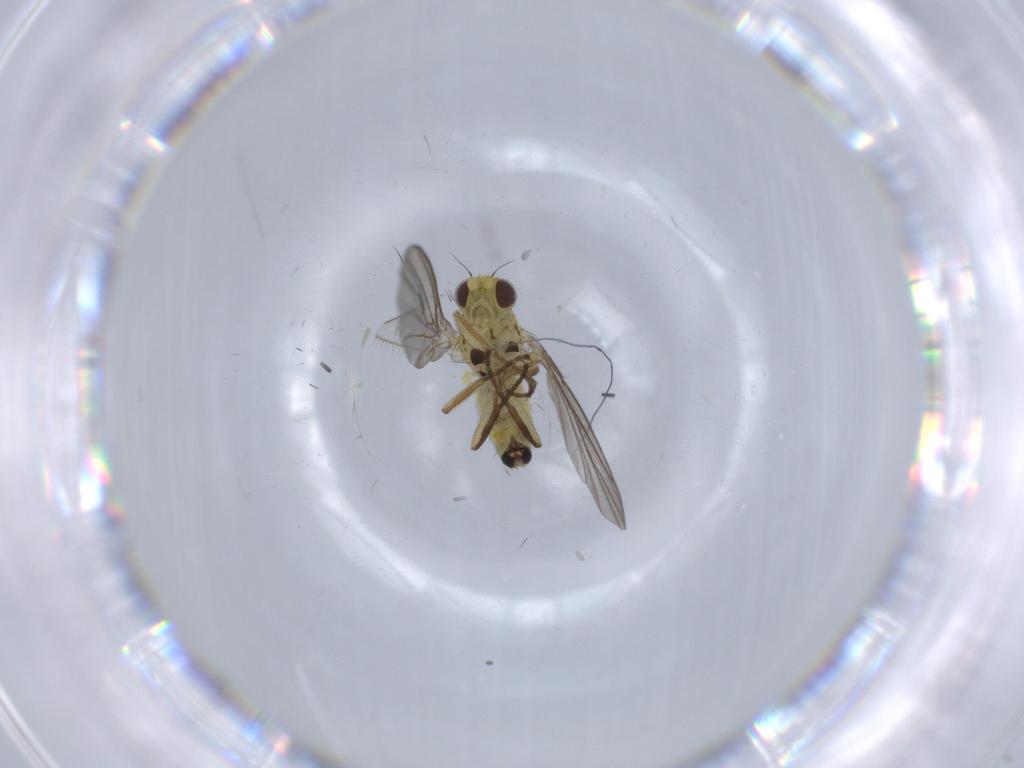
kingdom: Animalia
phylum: Arthropoda
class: Insecta
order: Diptera
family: Agromyzidae
